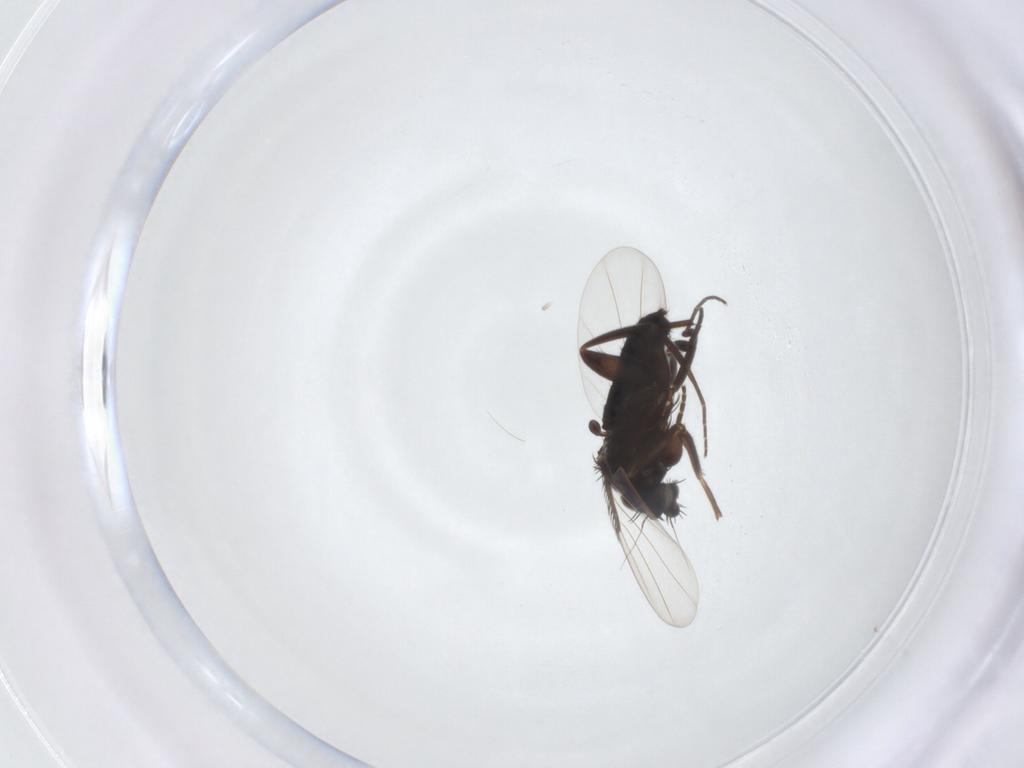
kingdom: Animalia
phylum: Arthropoda
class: Insecta
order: Diptera
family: Phoridae
